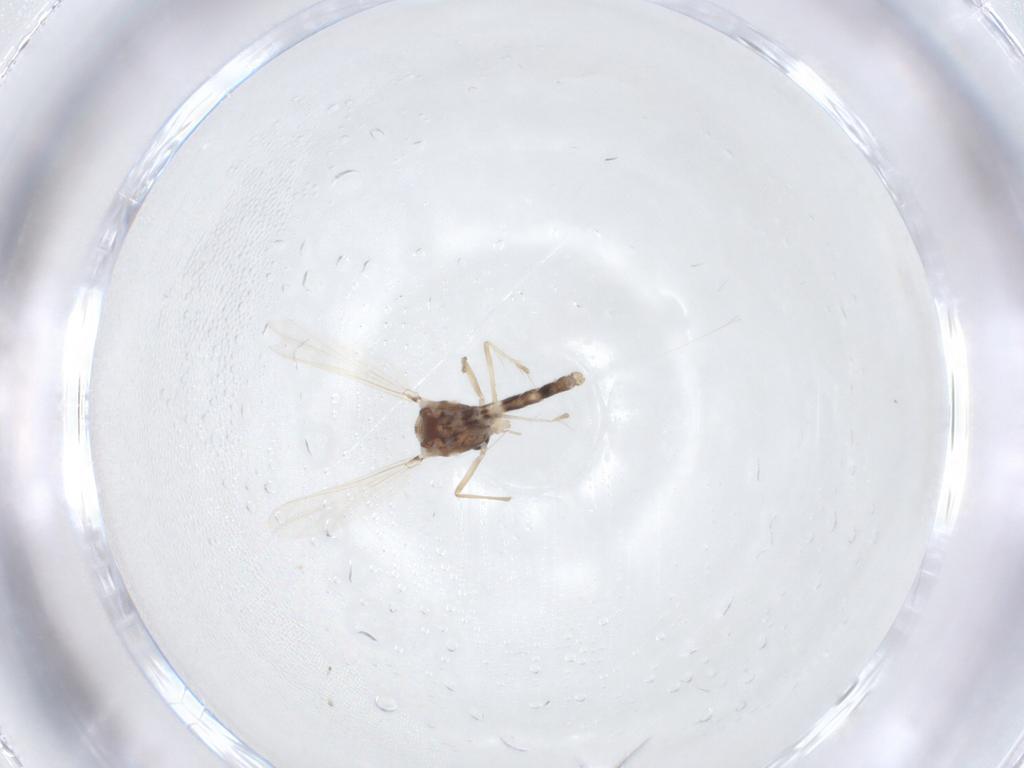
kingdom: Animalia
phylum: Arthropoda
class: Insecta
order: Diptera
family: Chironomidae
